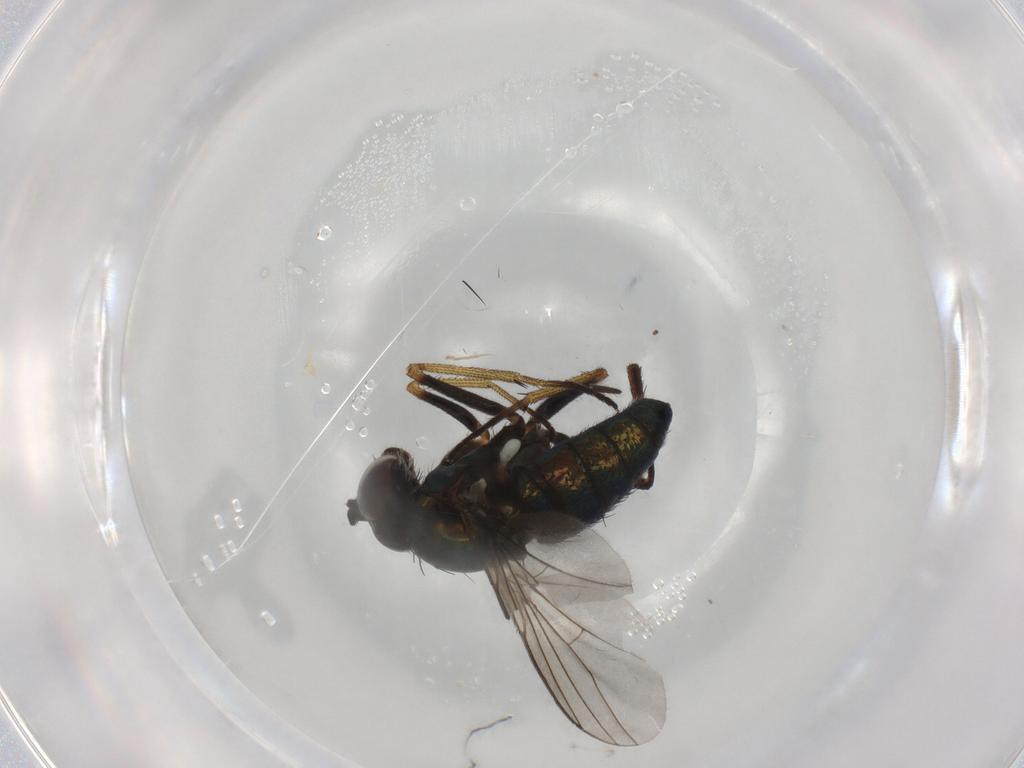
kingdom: Animalia
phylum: Arthropoda
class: Insecta
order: Diptera
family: Dolichopodidae
